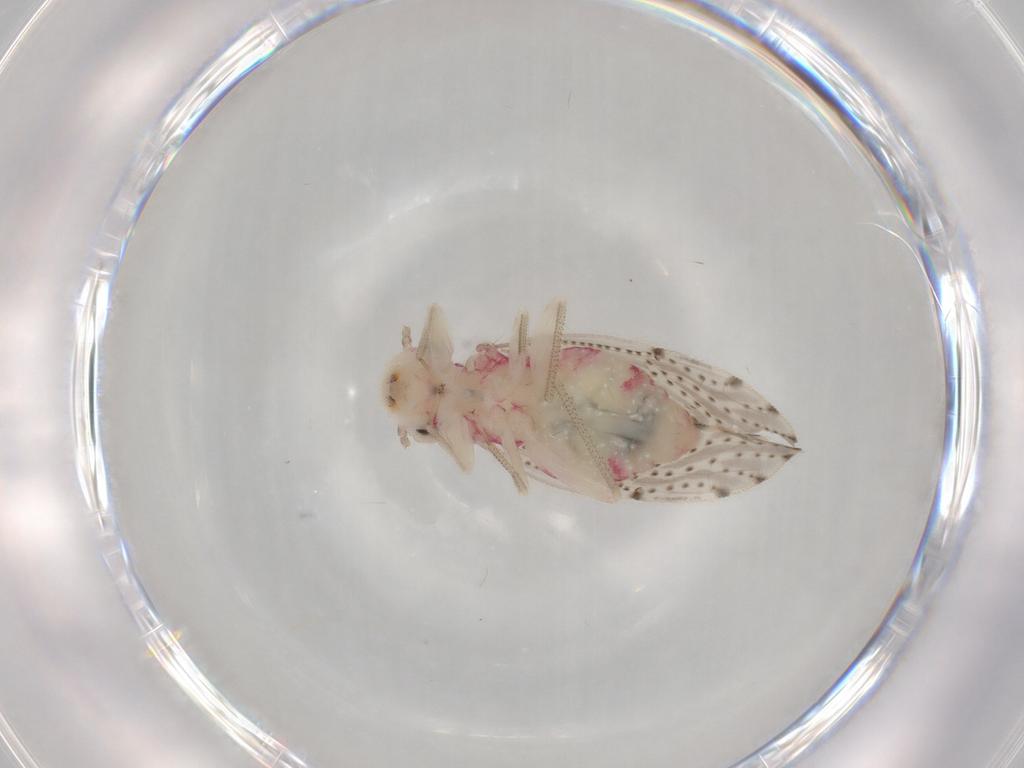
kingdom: Animalia
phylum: Arthropoda
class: Insecta
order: Psocodea
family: Hemipsocidae
